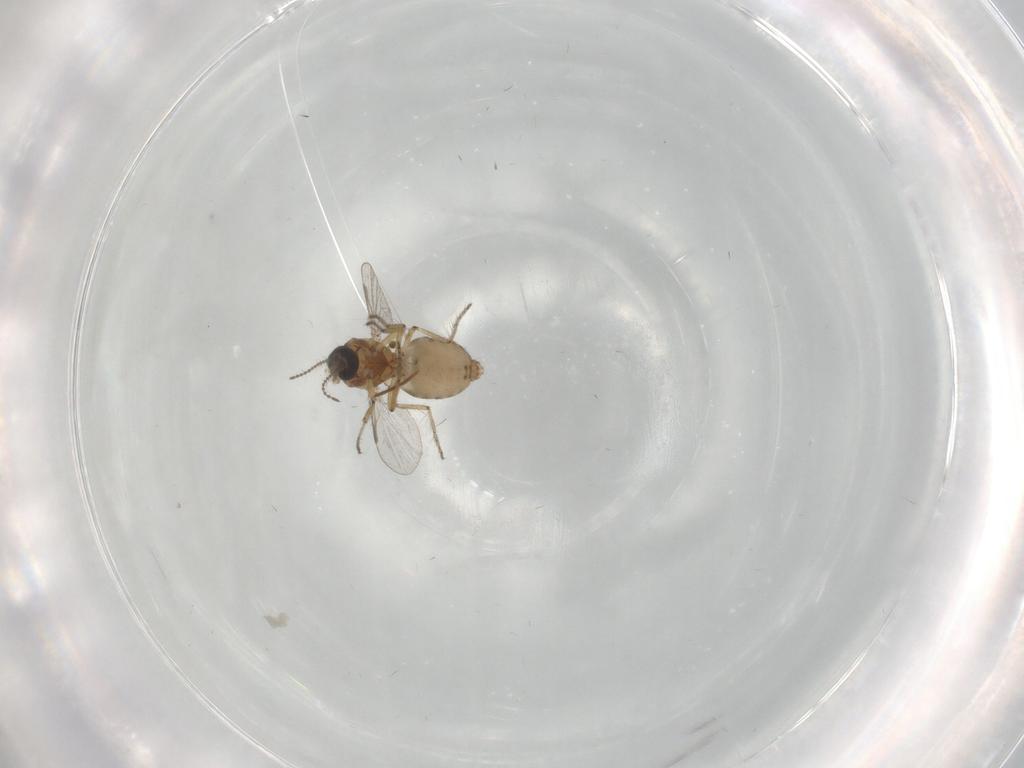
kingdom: Animalia
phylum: Arthropoda
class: Insecta
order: Diptera
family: Ceratopogonidae
